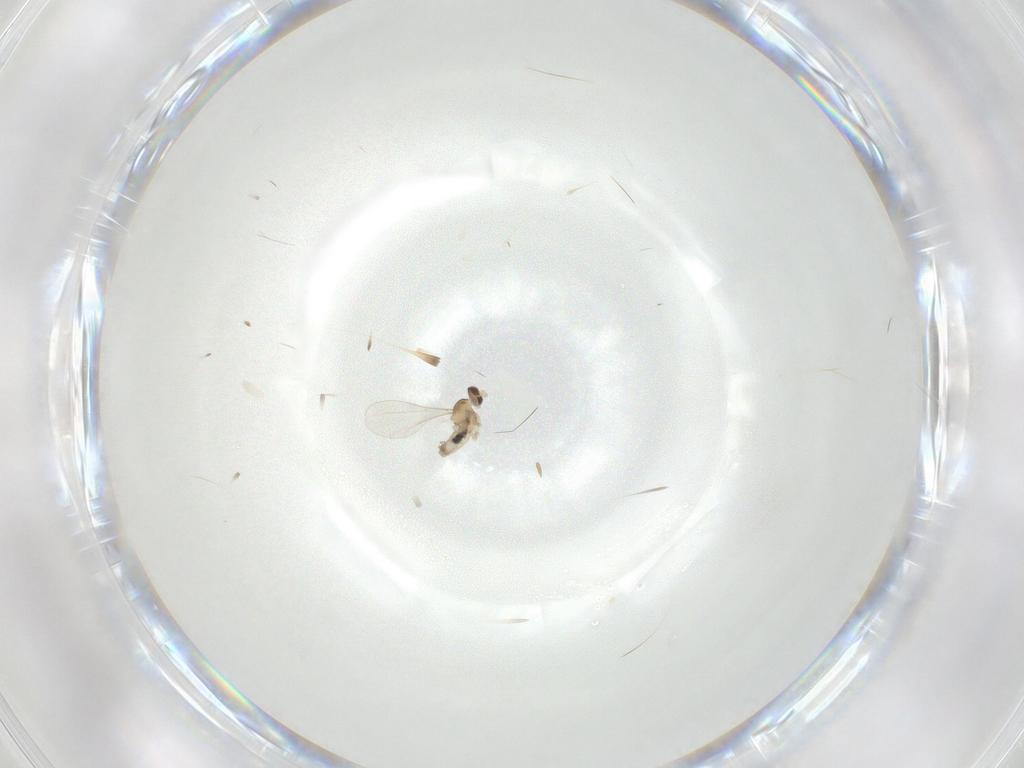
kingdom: Animalia
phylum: Arthropoda
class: Insecta
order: Diptera
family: Cecidomyiidae
